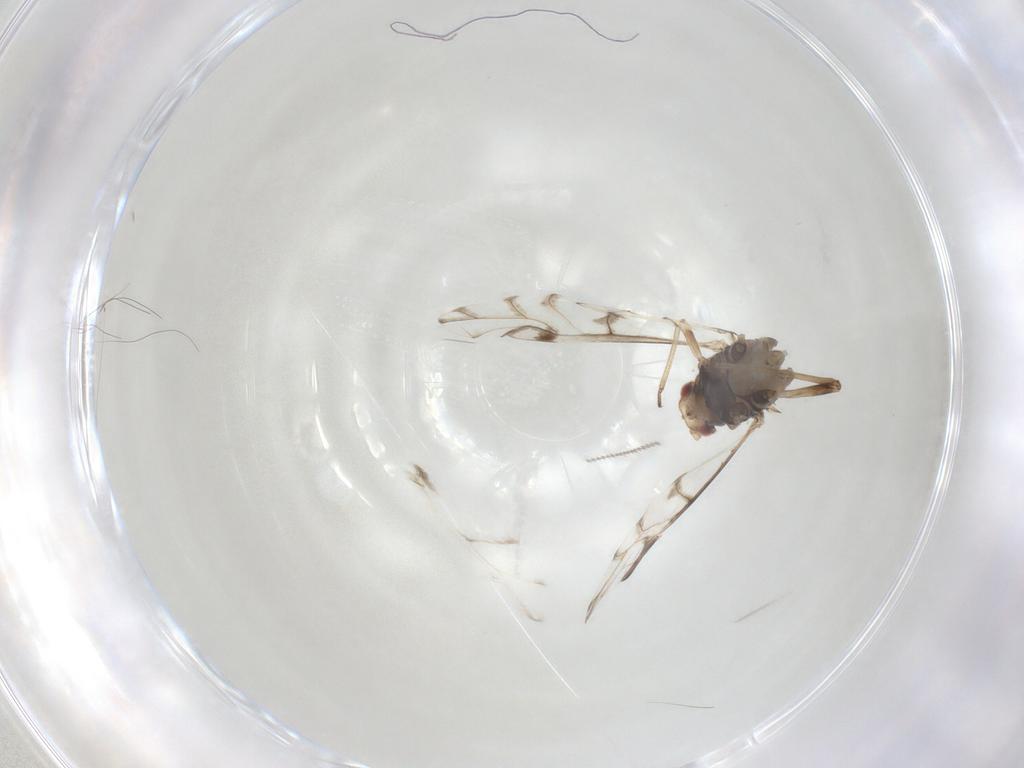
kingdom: Animalia
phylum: Arthropoda
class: Insecta
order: Hemiptera
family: Aphididae
